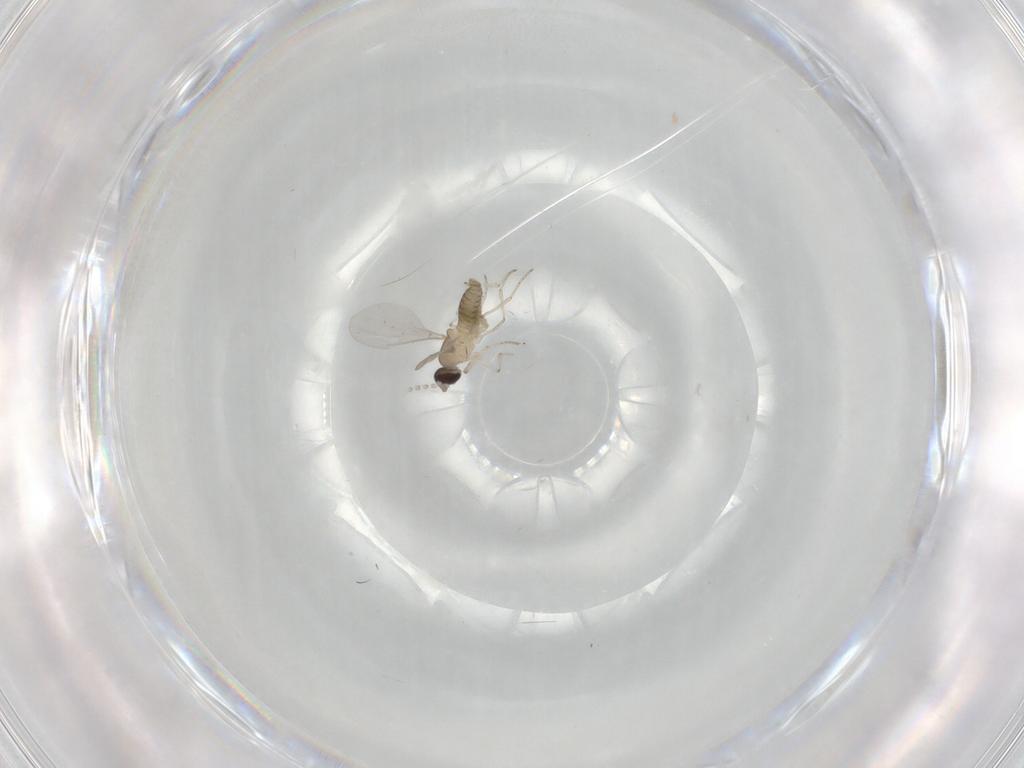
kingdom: Animalia
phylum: Arthropoda
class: Insecta
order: Diptera
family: Cecidomyiidae
